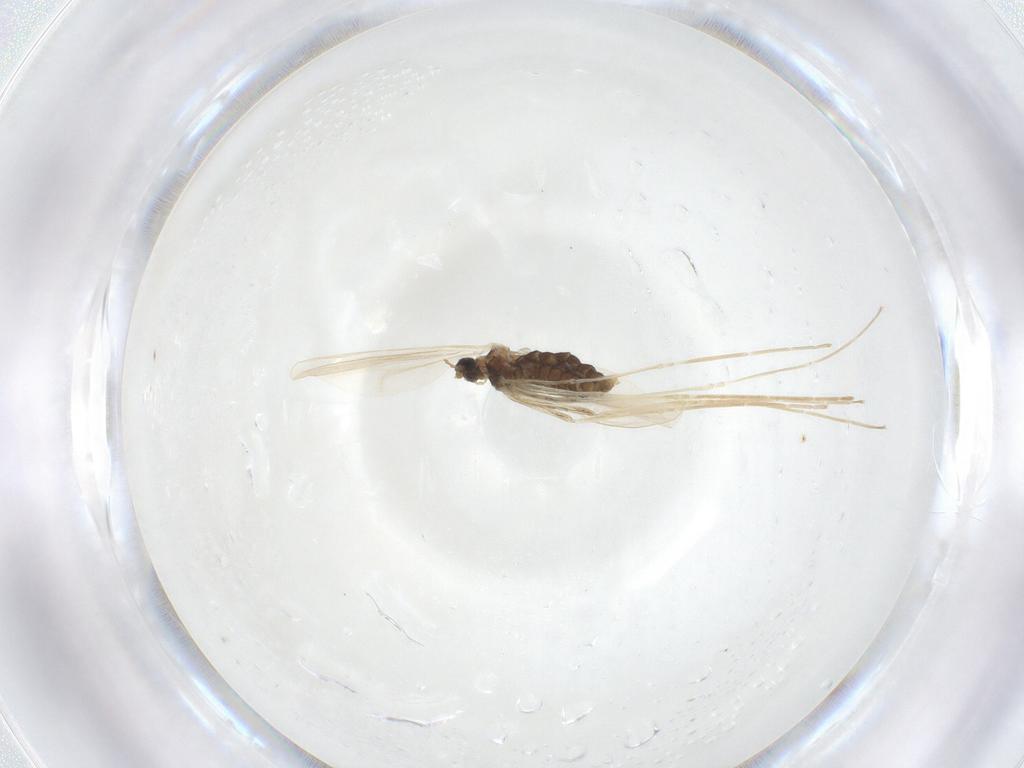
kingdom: Animalia
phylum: Arthropoda
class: Insecta
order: Diptera
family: Cecidomyiidae
